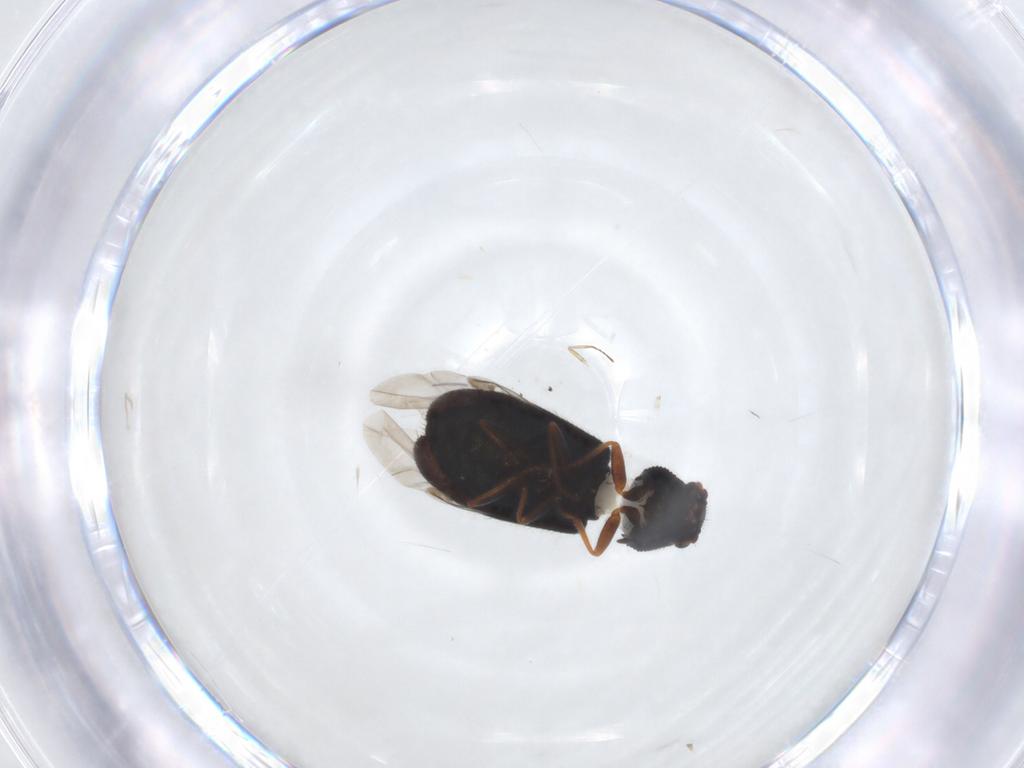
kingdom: Animalia
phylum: Arthropoda
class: Insecta
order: Coleoptera
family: Melyridae
